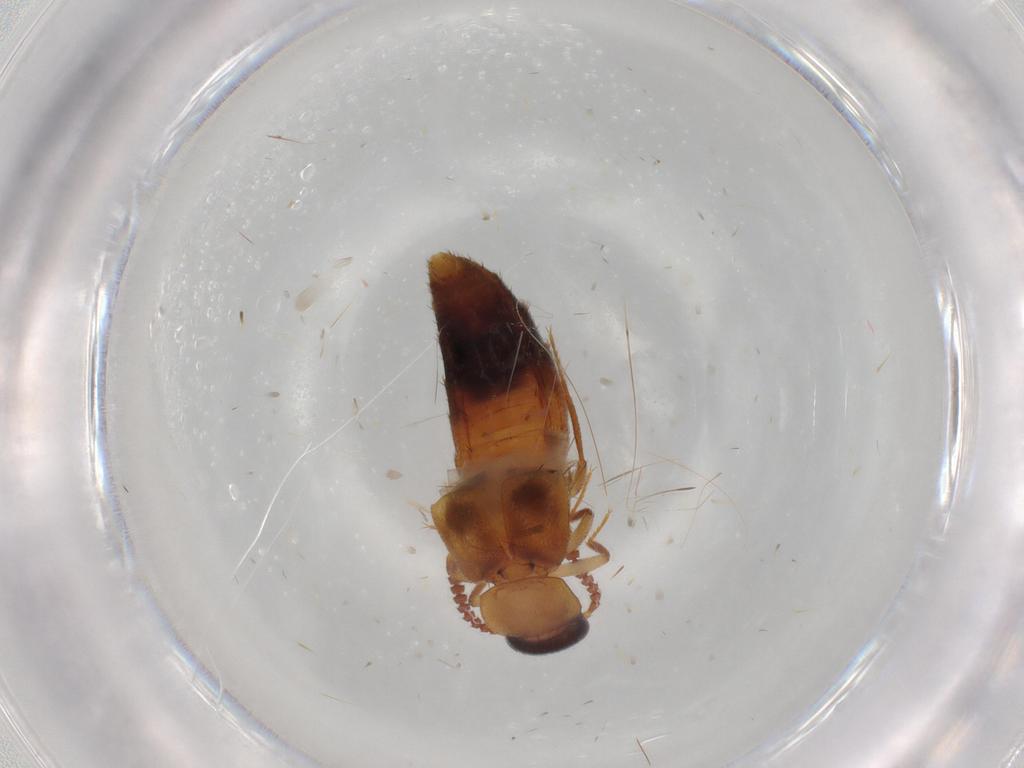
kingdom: Animalia
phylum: Arthropoda
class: Insecta
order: Coleoptera
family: Staphylinidae
